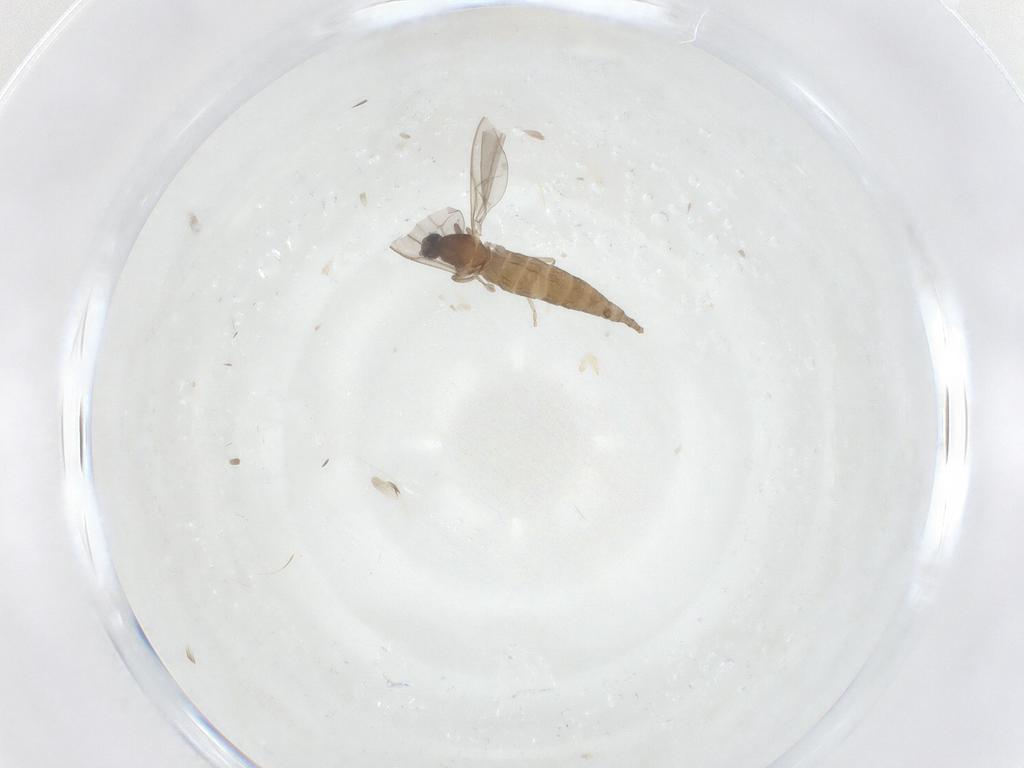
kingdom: Animalia
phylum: Arthropoda
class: Insecta
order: Diptera
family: Cecidomyiidae
